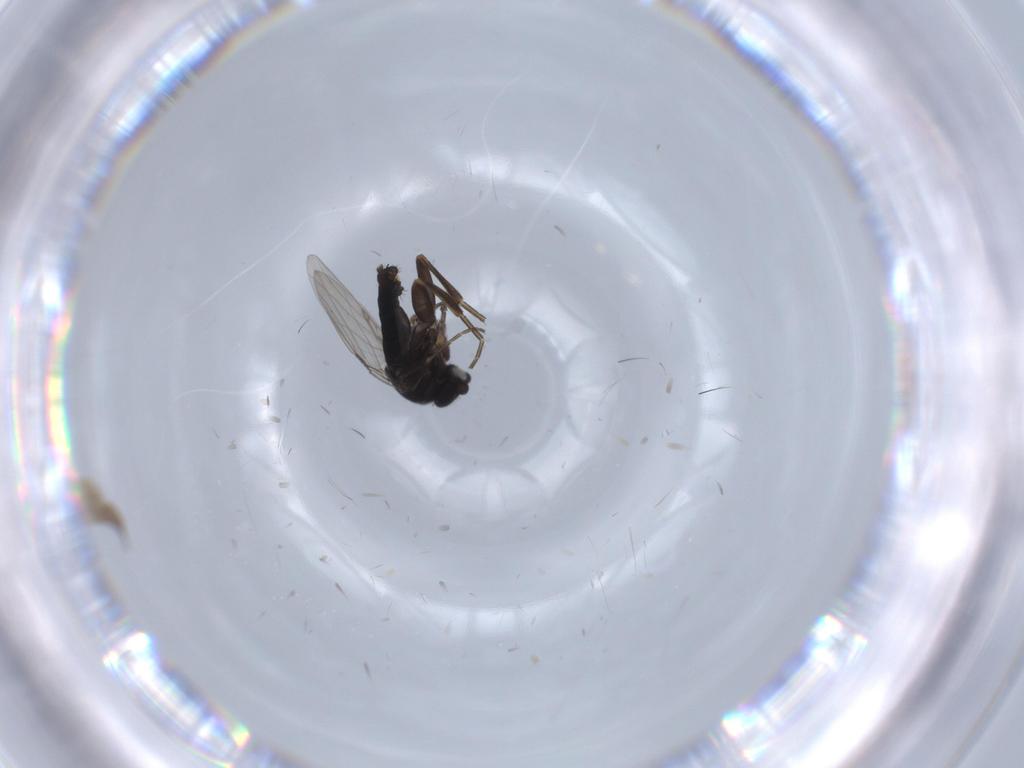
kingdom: Animalia
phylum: Arthropoda
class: Insecta
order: Diptera
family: Phoridae
